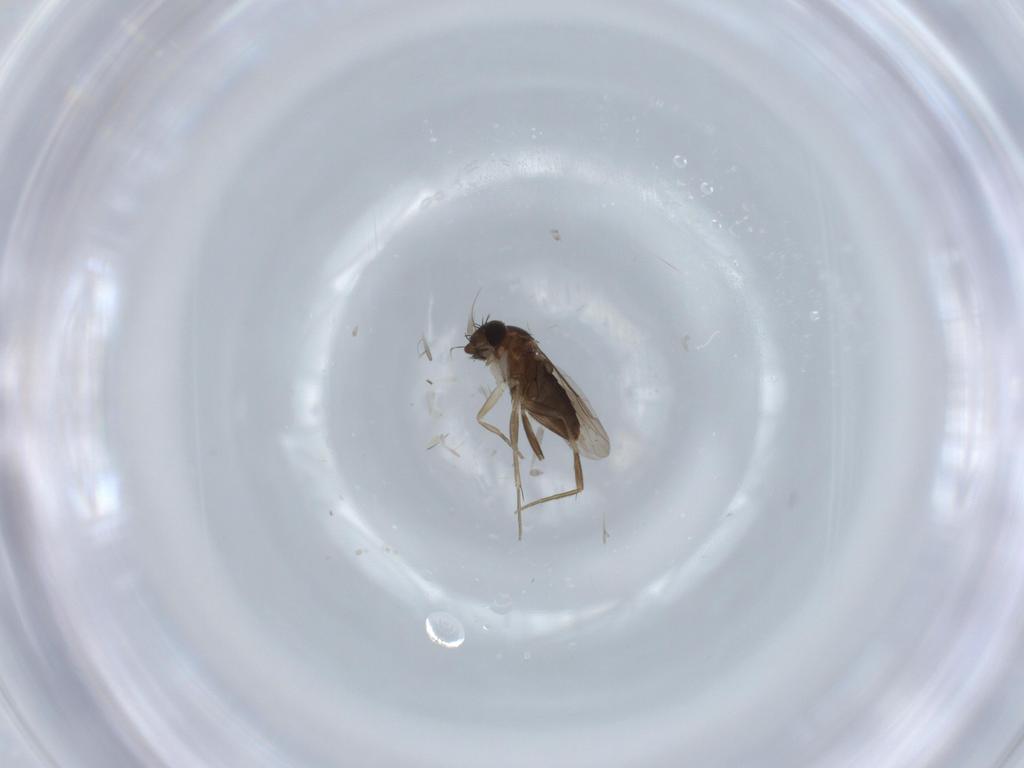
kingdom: Animalia
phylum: Arthropoda
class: Insecta
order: Diptera
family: Phoridae
